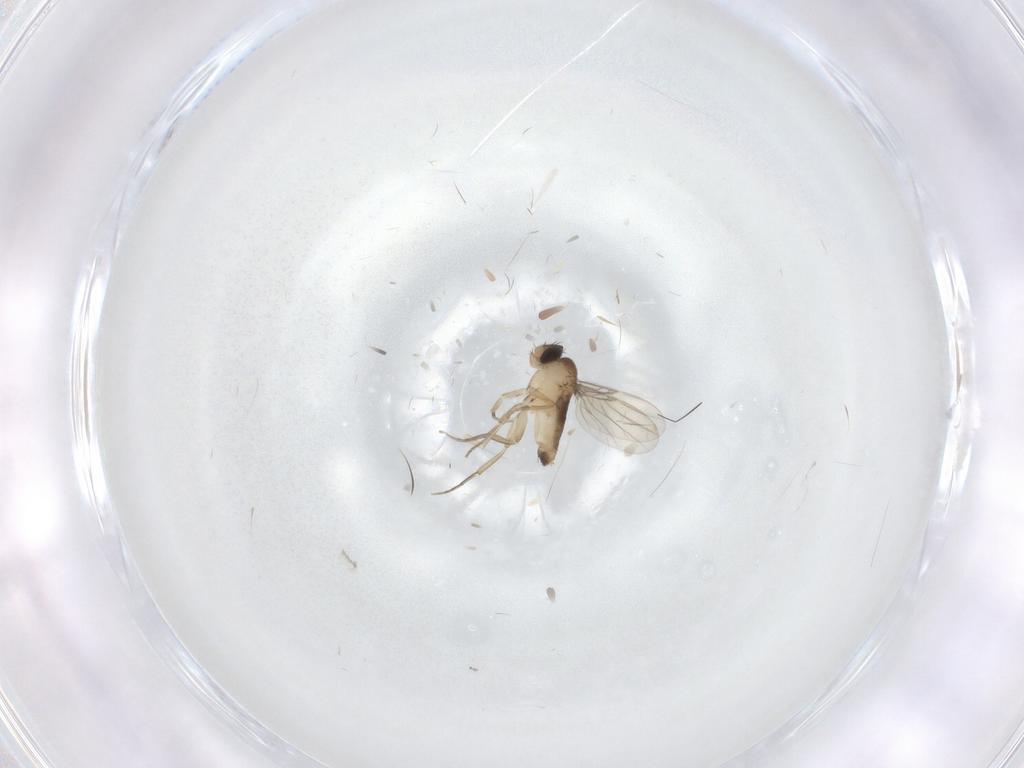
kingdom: Animalia
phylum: Arthropoda
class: Insecta
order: Diptera
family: Chironomidae
